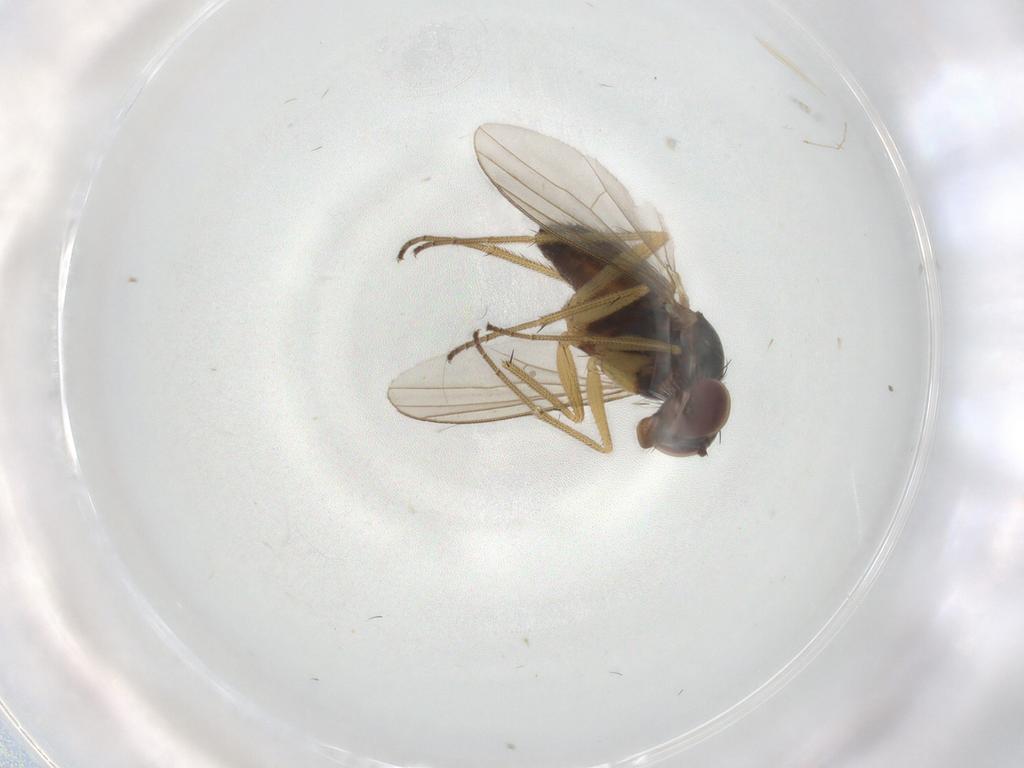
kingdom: Animalia
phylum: Arthropoda
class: Insecta
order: Diptera
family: Dolichopodidae
